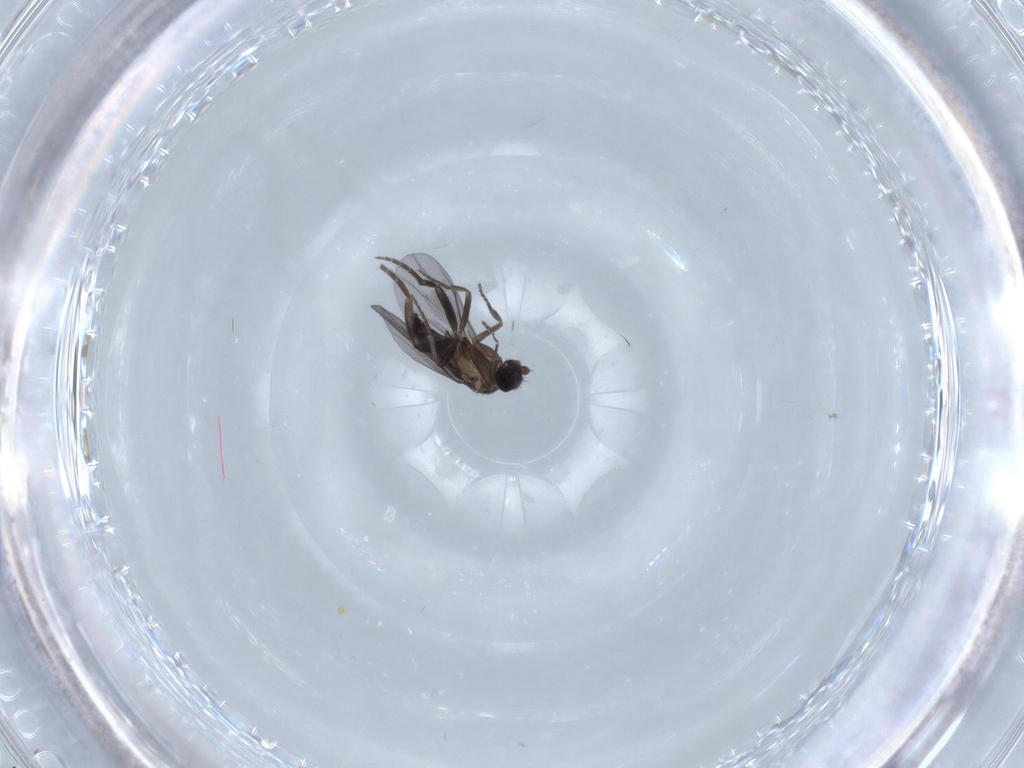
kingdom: Animalia
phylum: Arthropoda
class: Insecta
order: Diptera
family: Phoridae
